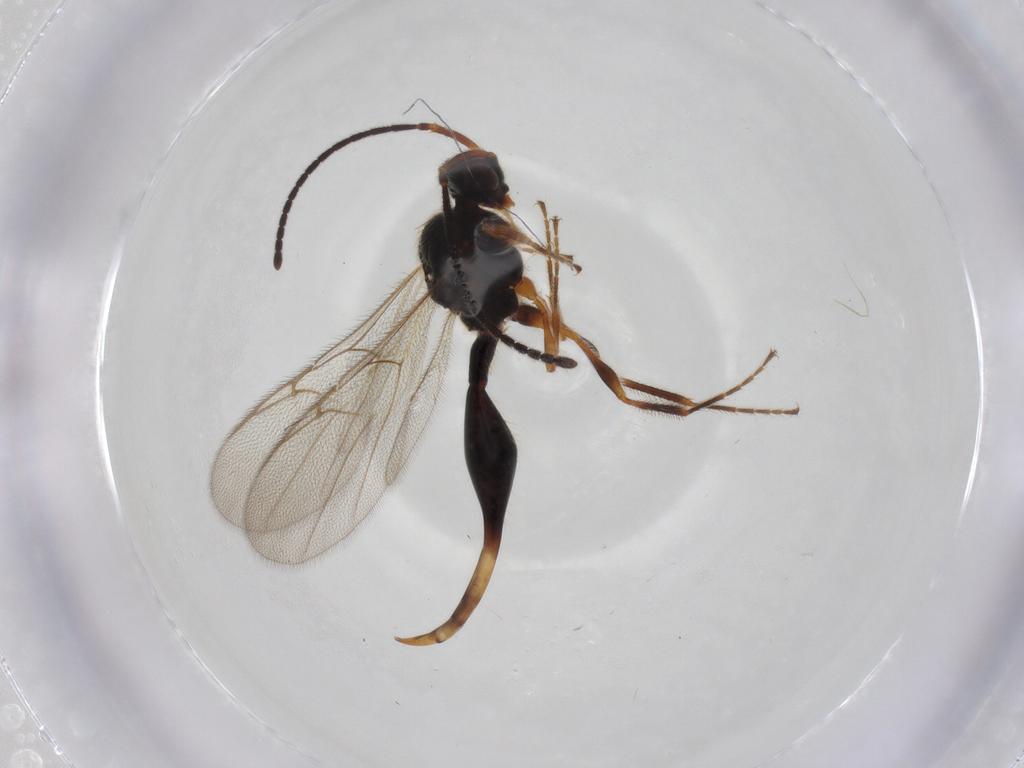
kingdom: Animalia
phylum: Arthropoda
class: Insecta
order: Hymenoptera
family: Diapriidae
